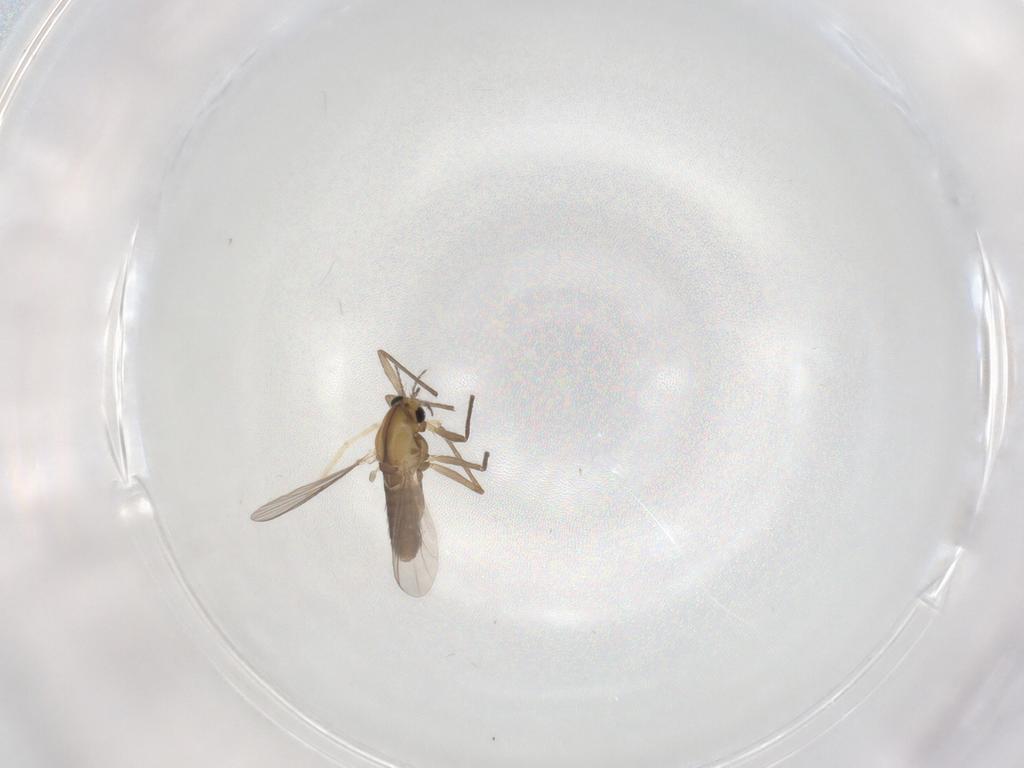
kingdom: Animalia
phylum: Arthropoda
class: Insecta
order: Diptera
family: Chironomidae
